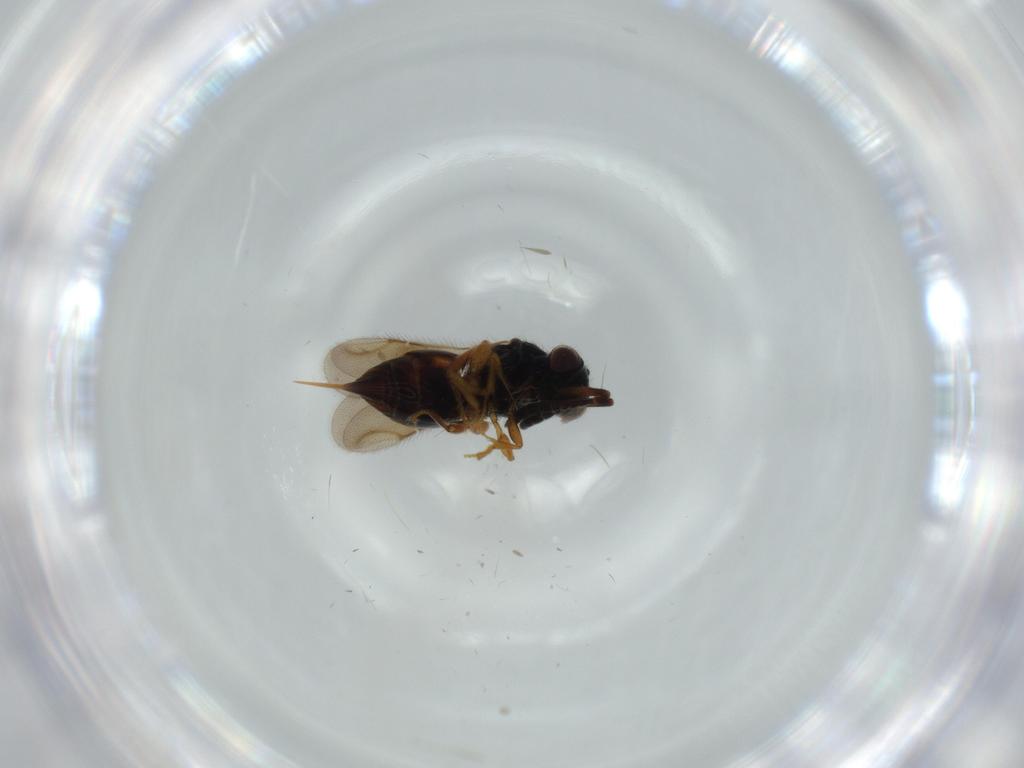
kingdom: Animalia
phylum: Arthropoda
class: Insecta
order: Hymenoptera
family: Ceraphronidae
